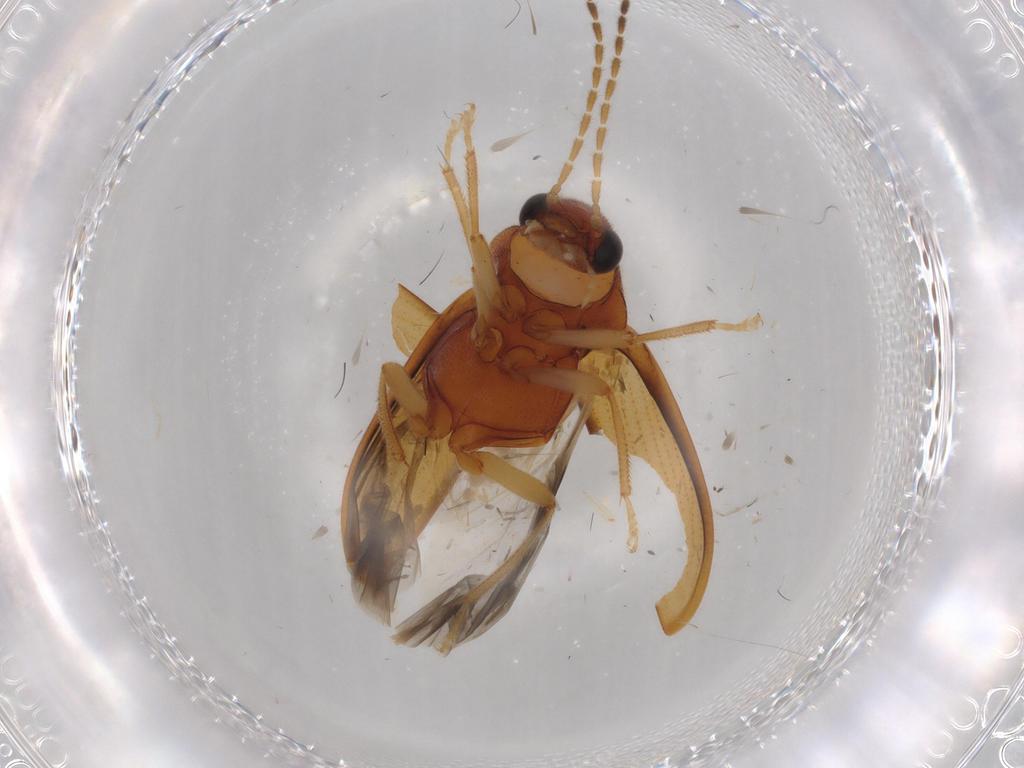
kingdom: Animalia
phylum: Arthropoda
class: Insecta
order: Coleoptera
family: Ptilodactylidae
